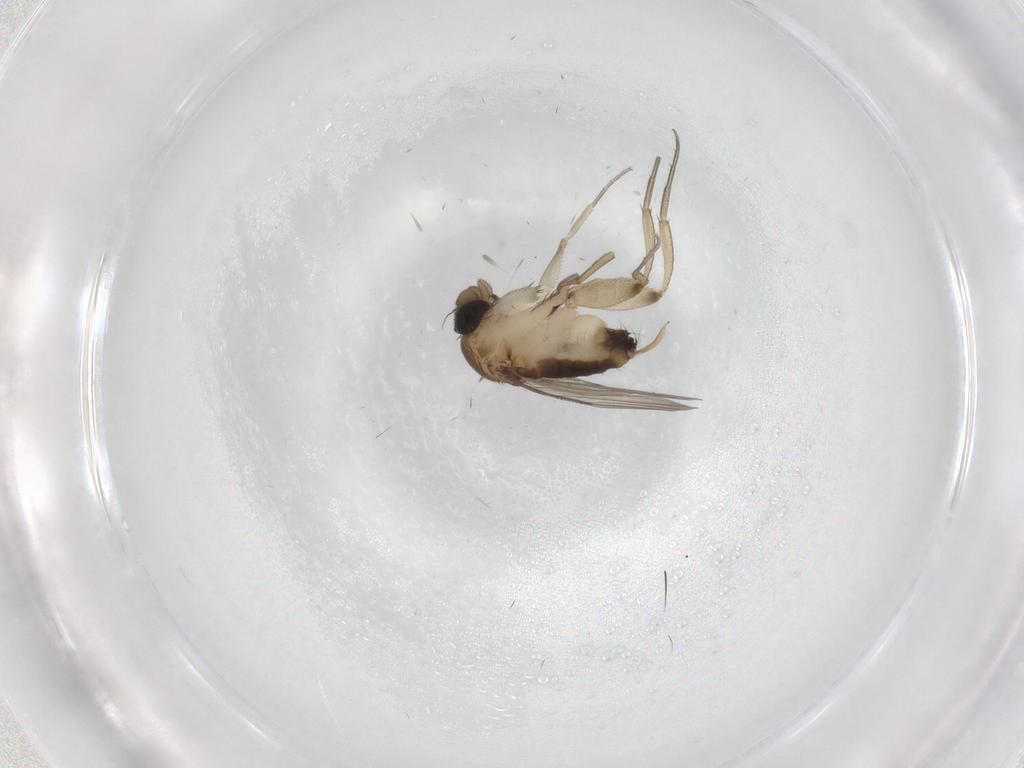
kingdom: Animalia
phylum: Arthropoda
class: Insecta
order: Diptera
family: Phoridae
